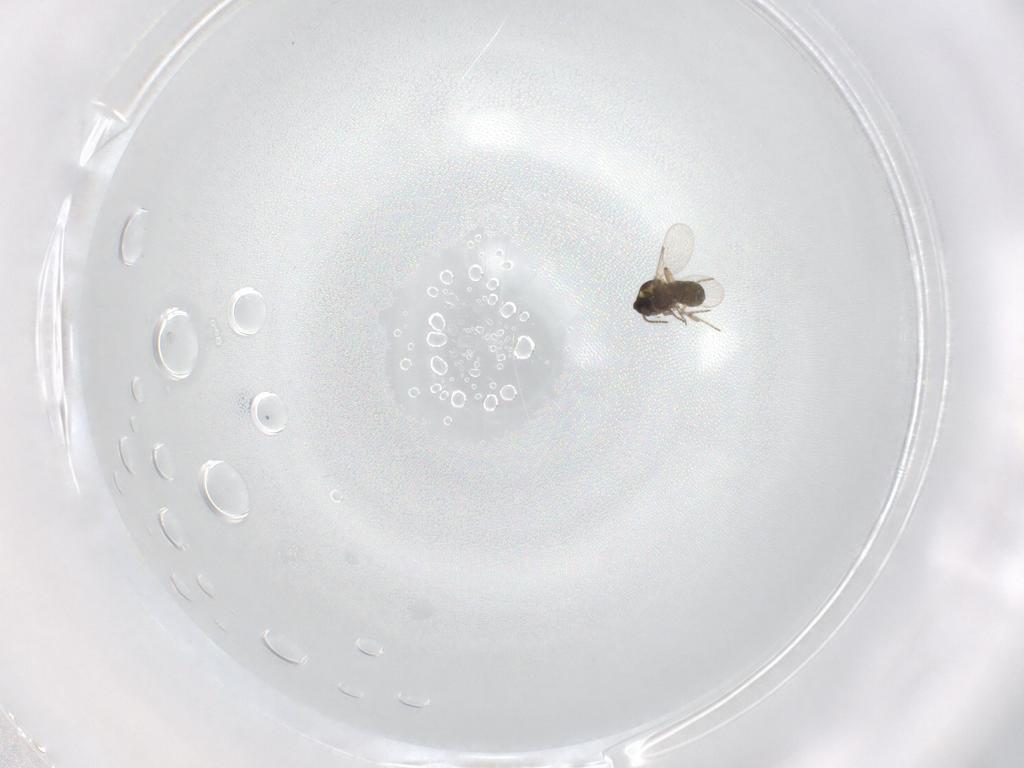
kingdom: Animalia
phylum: Arthropoda
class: Insecta
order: Diptera
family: Ceratopogonidae
